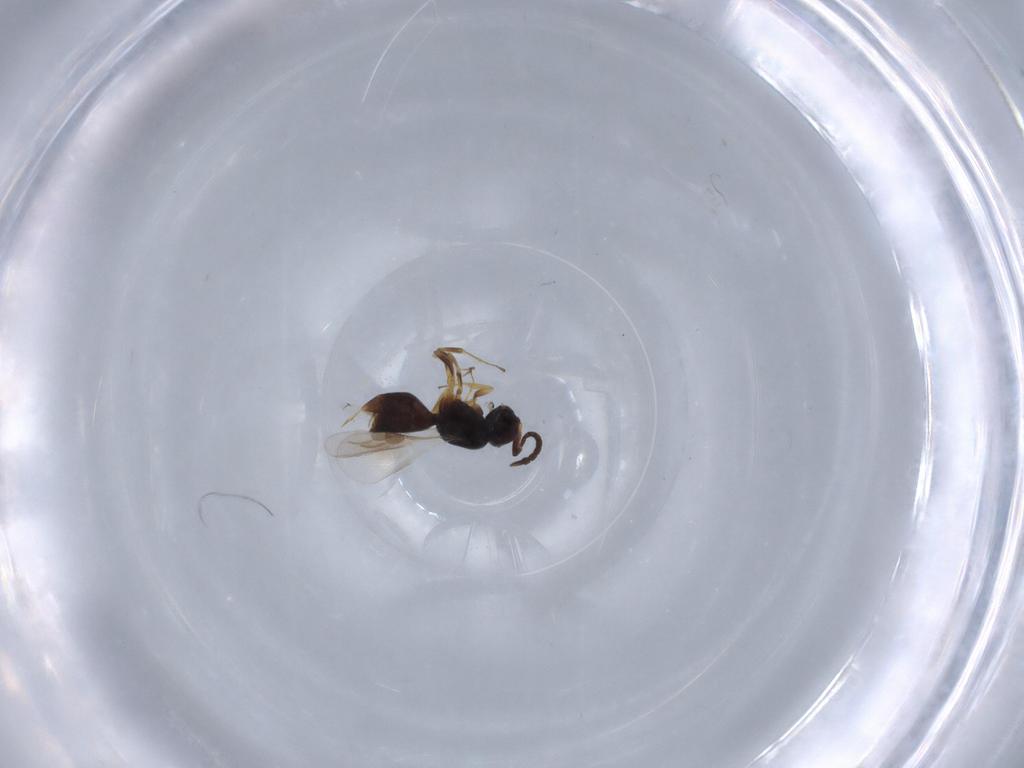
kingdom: Animalia
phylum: Arthropoda
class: Insecta
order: Hymenoptera
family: Megaspilidae
